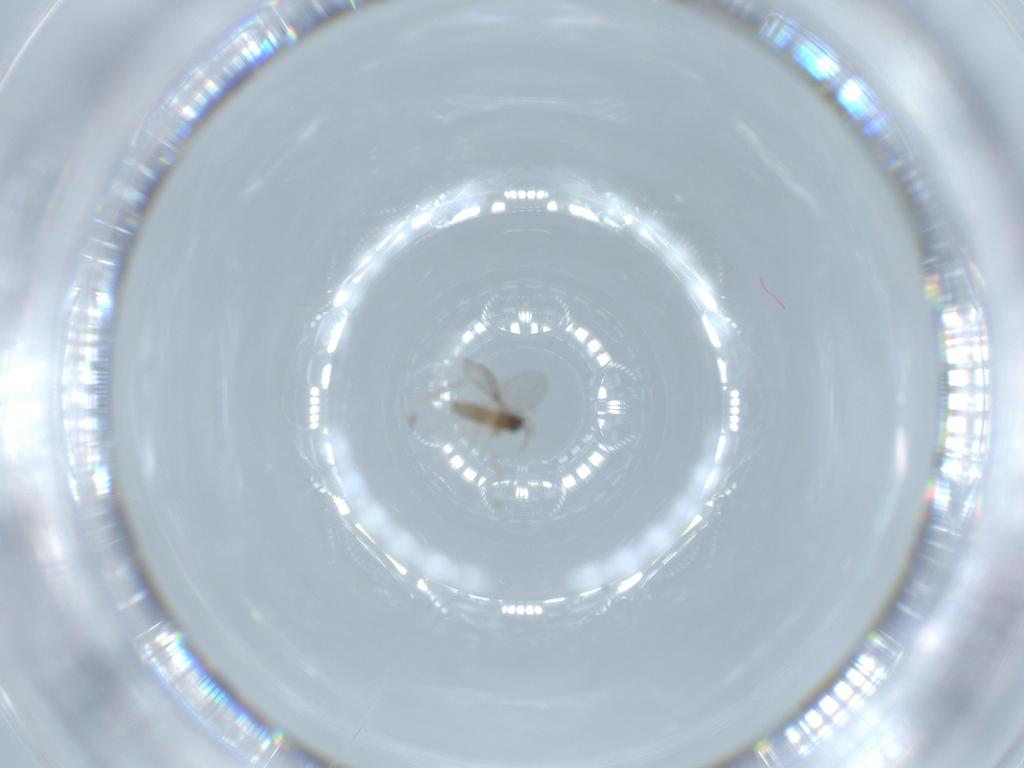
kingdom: Animalia
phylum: Arthropoda
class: Insecta
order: Diptera
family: Cecidomyiidae
